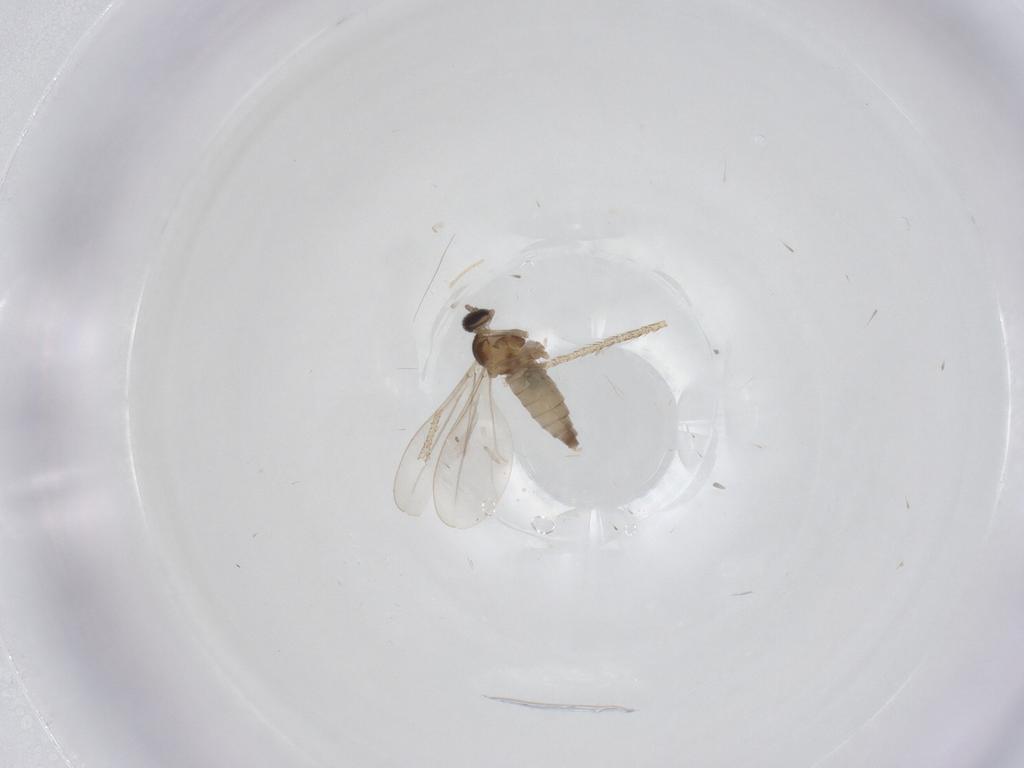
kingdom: Animalia
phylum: Arthropoda
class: Insecta
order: Diptera
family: Cecidomyiidae
